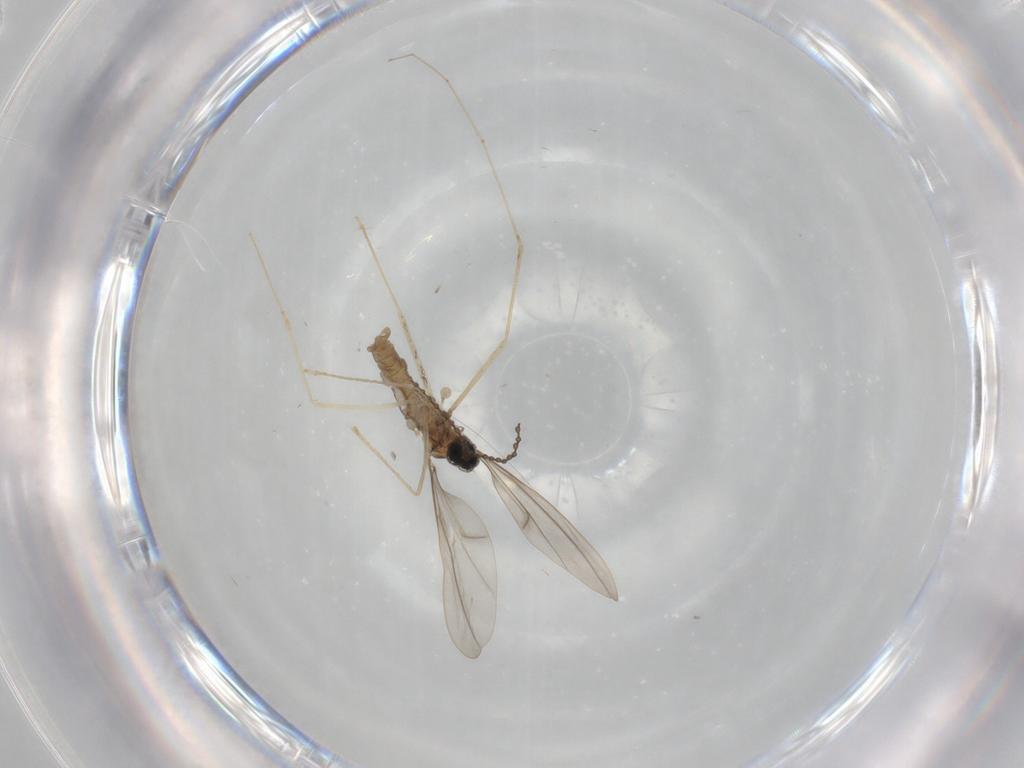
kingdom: Animalia
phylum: Arthropoda
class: Insecta
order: Diptera
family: Cecidomyiidae
